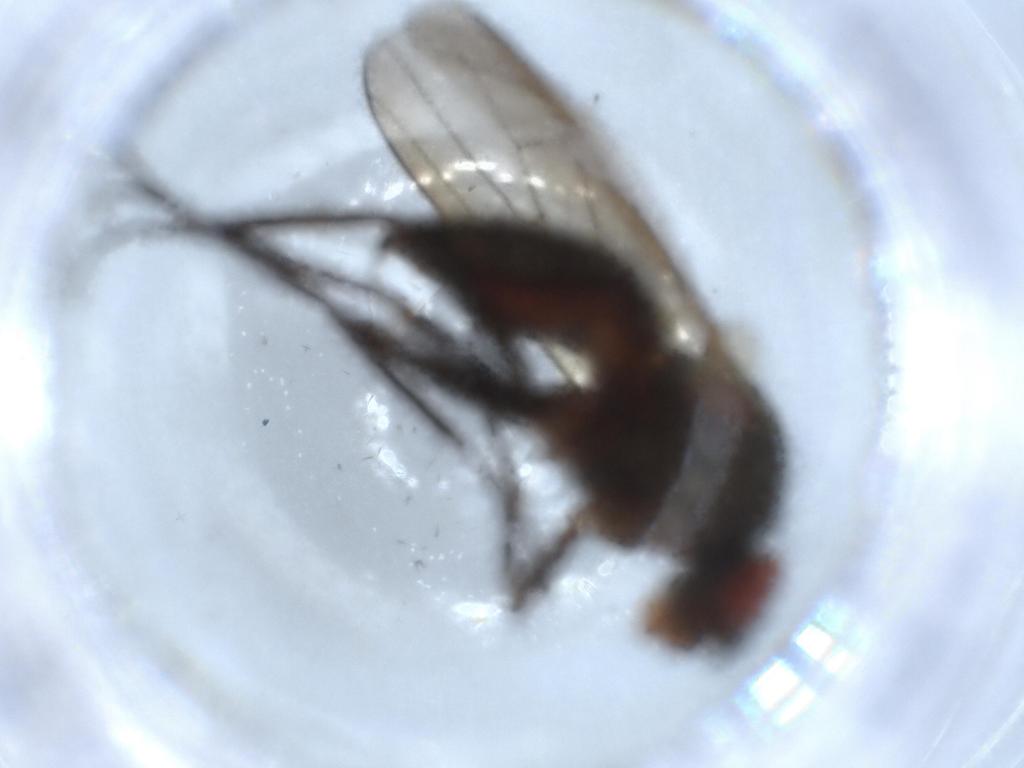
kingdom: Animalia
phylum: Arthropoda
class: Insecta
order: Diptera
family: Anthomyiidae
